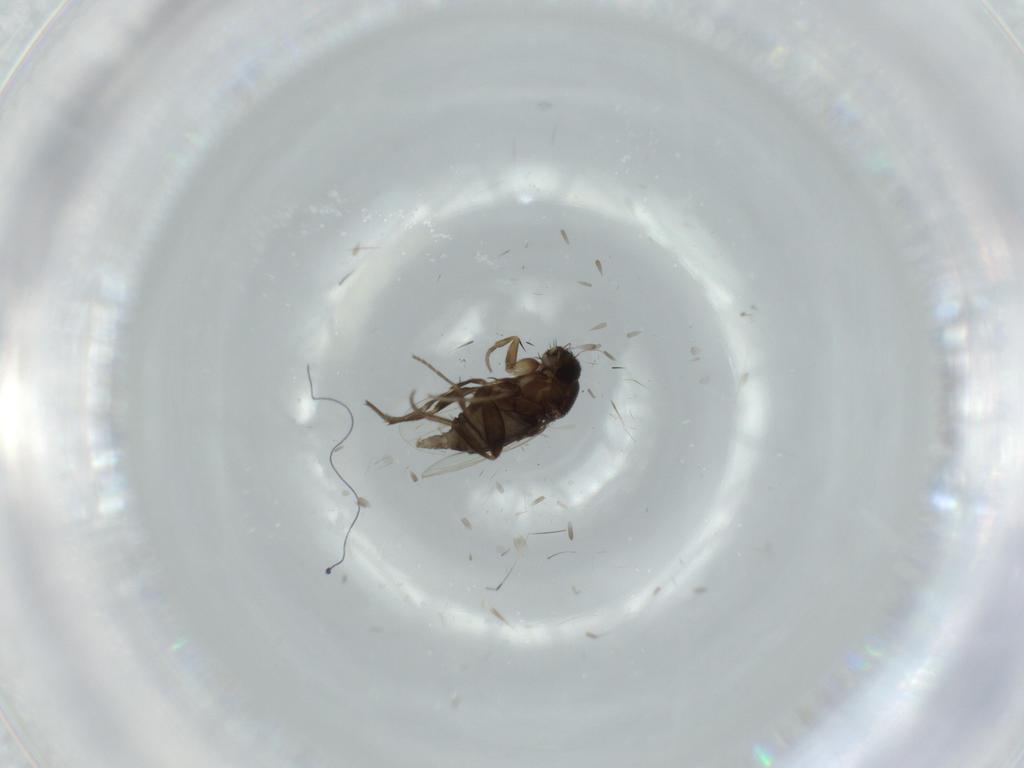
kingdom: Animalia
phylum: Arthropoda
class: Insecta
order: Diptera
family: Phoridae
